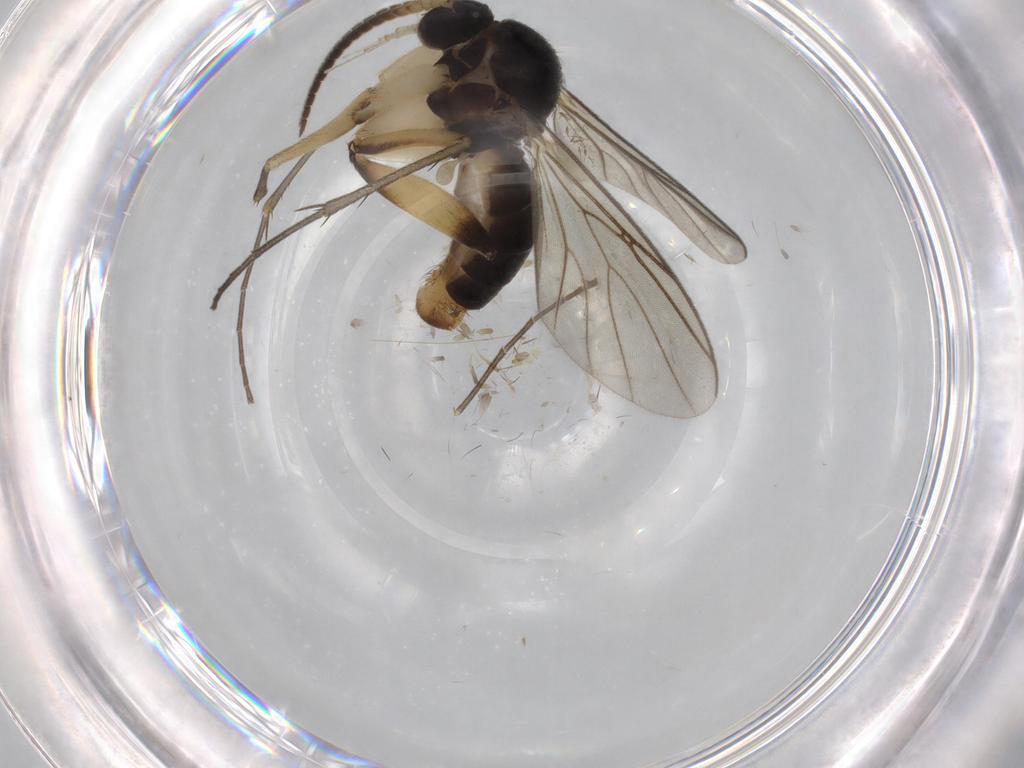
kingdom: Animalia
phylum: Arthropoda
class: Insecta
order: Diptera
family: Cecidomyiidae
